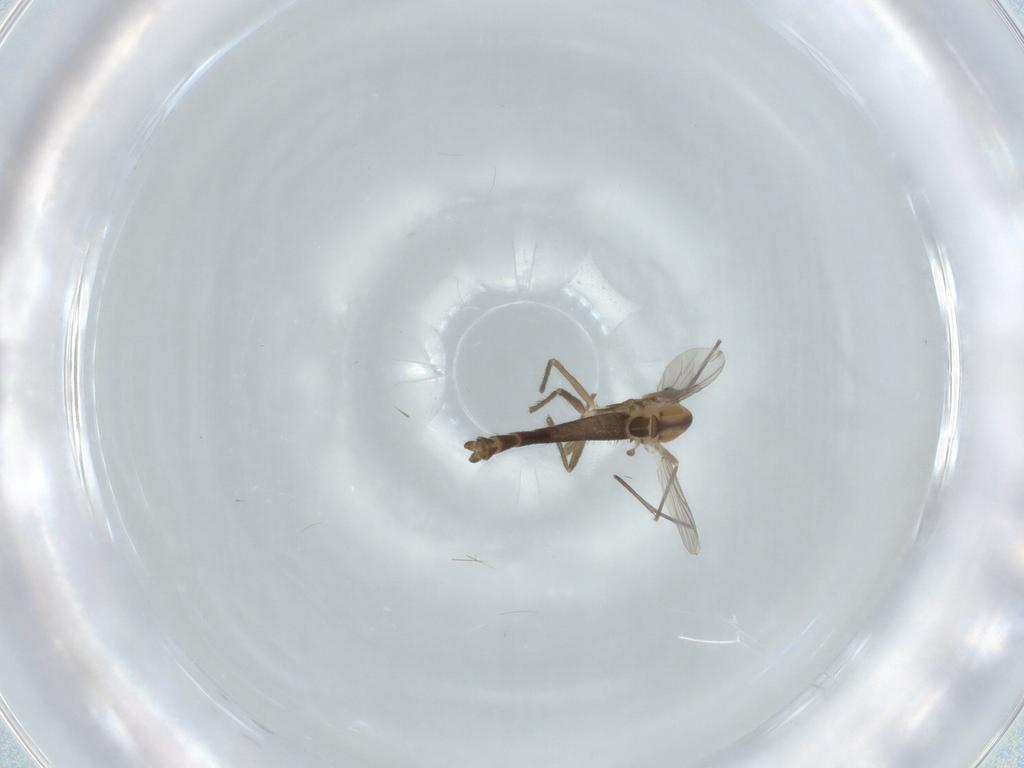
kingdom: Animalia
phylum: Arthropoda
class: Insecta
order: Diptera
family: Sciaridae
